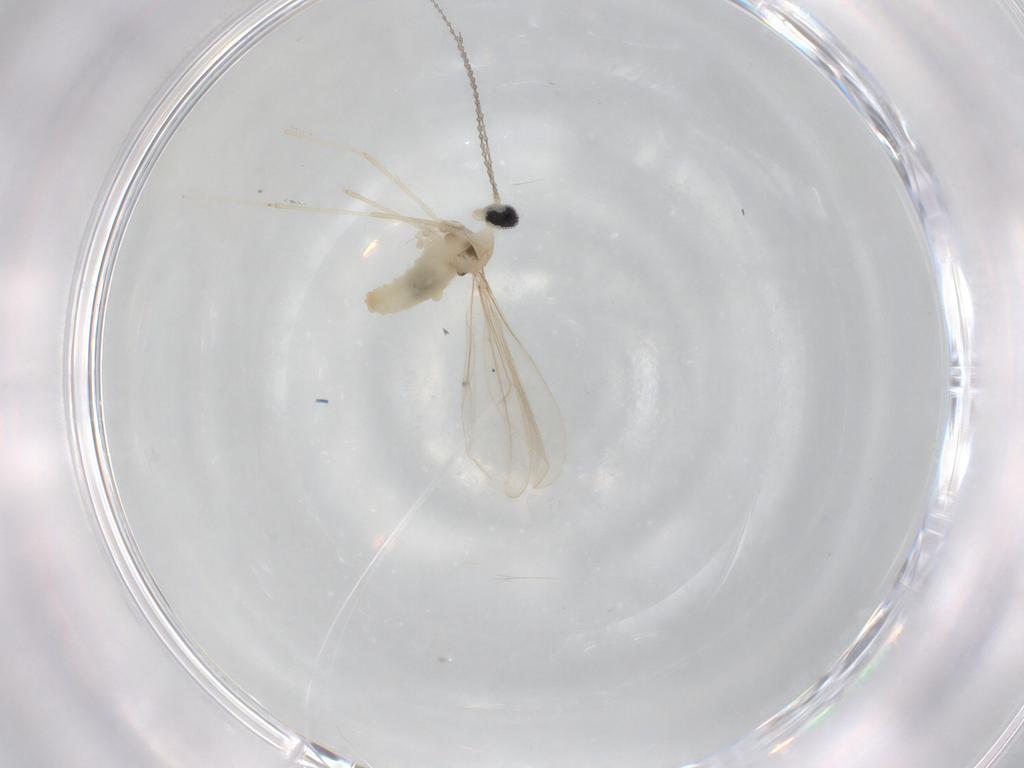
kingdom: Animalia
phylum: Arthropoda
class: Insecta
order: Diptera
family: Cecidomyiidae
